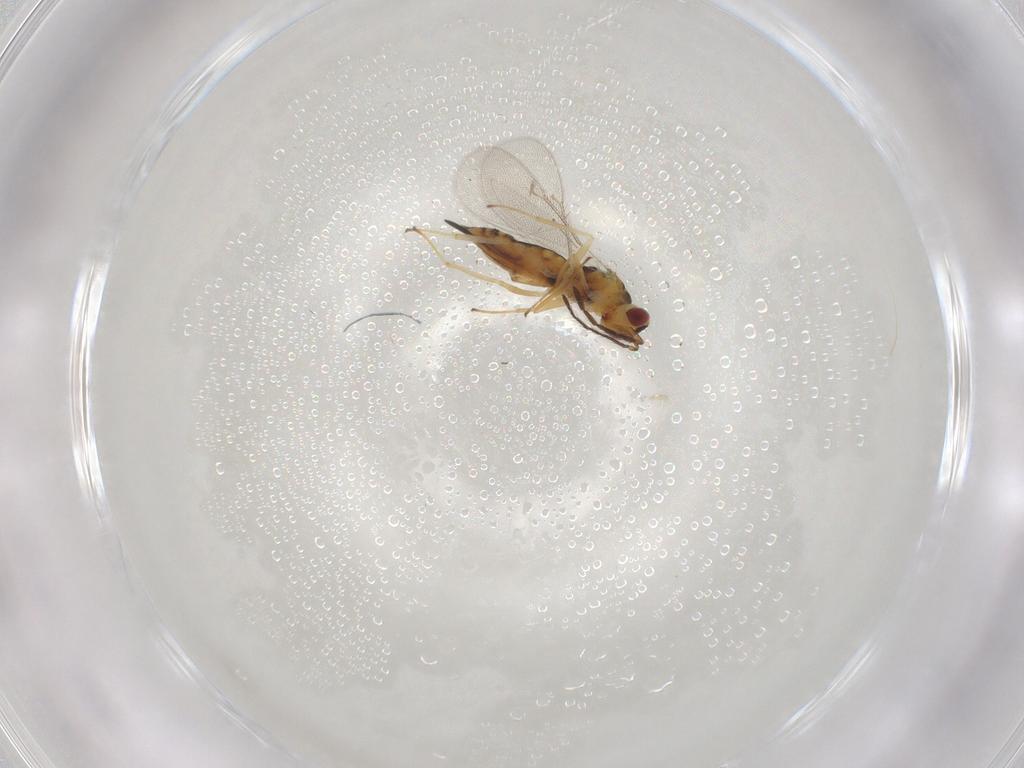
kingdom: Animalia
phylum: Arthropoda
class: Insecta
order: Hymenoptera
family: Eulophidae
